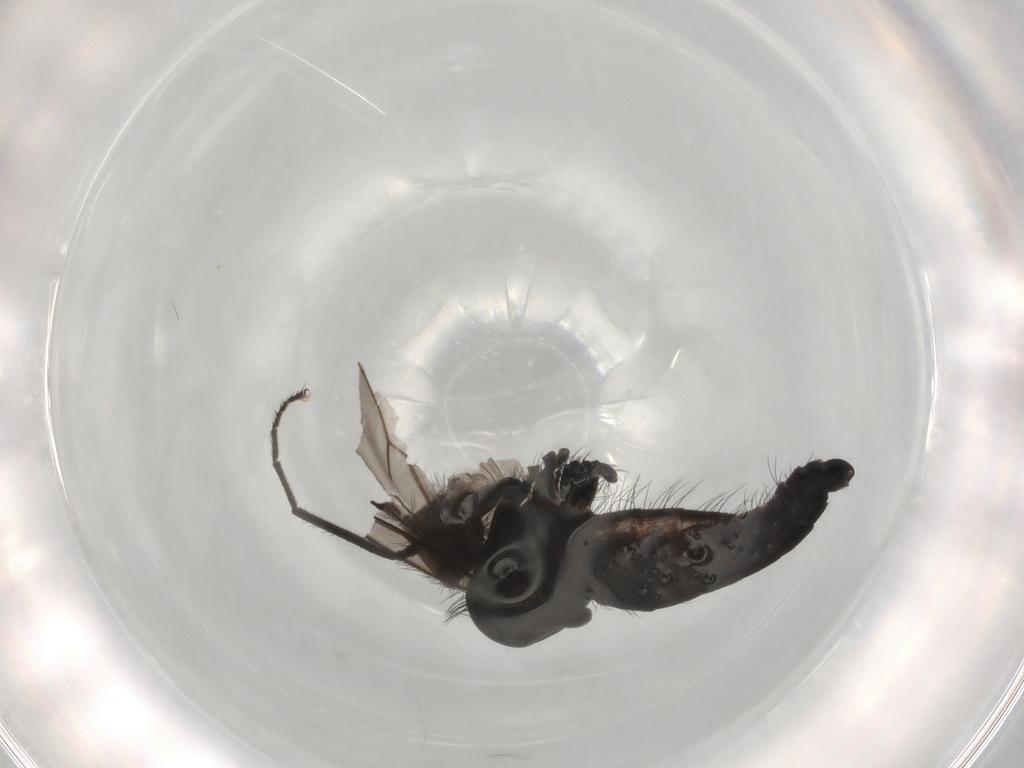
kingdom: Animalia
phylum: Arthropoda
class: Insecta
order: Diptera
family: Hybotidae
